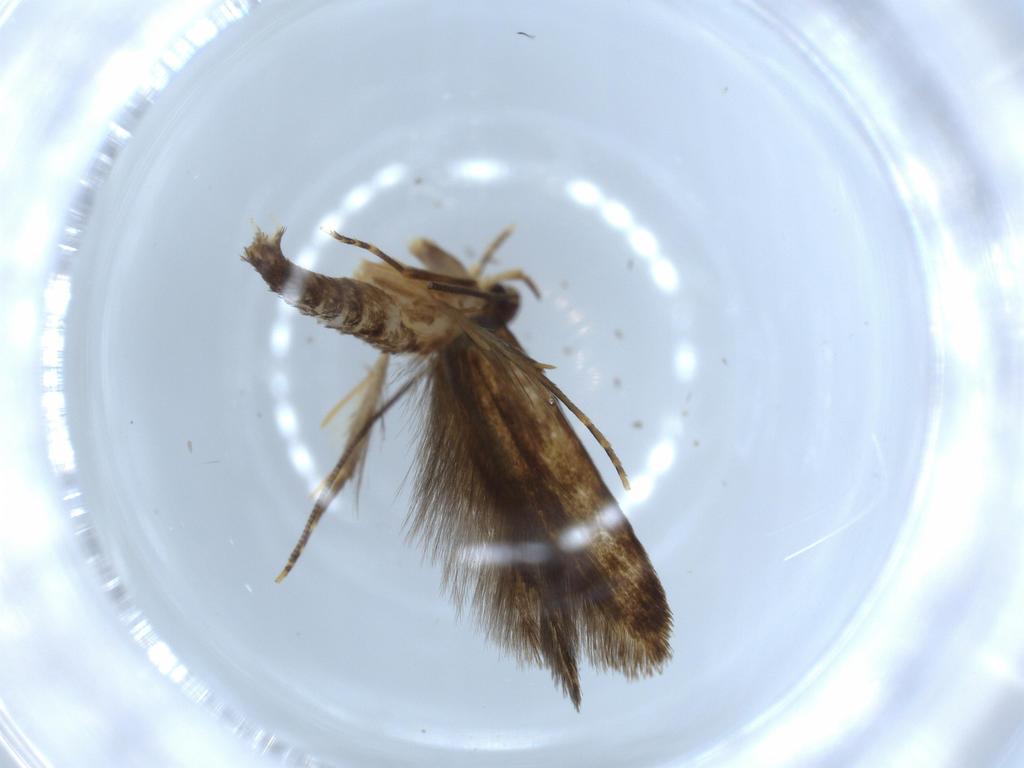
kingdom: Animalia
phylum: Arthropoda
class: Insecta
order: Lepidoptera
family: Tineidae
